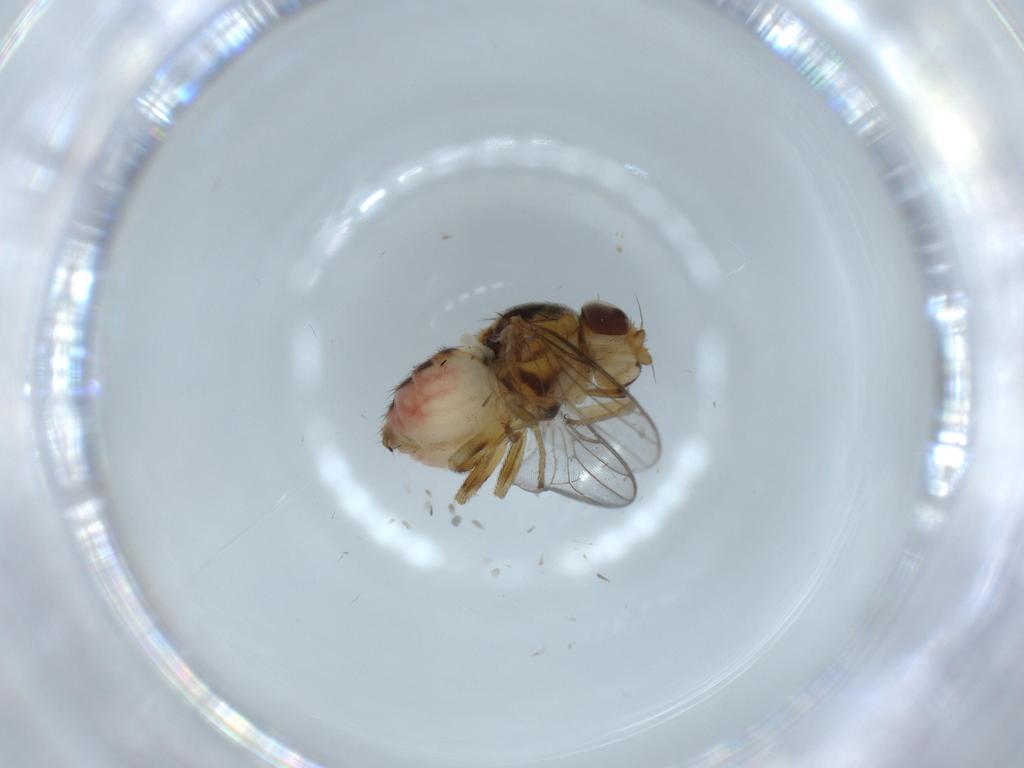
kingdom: Animalia
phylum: Arthropoda
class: Insecta
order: Diptera
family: Chloropidae
